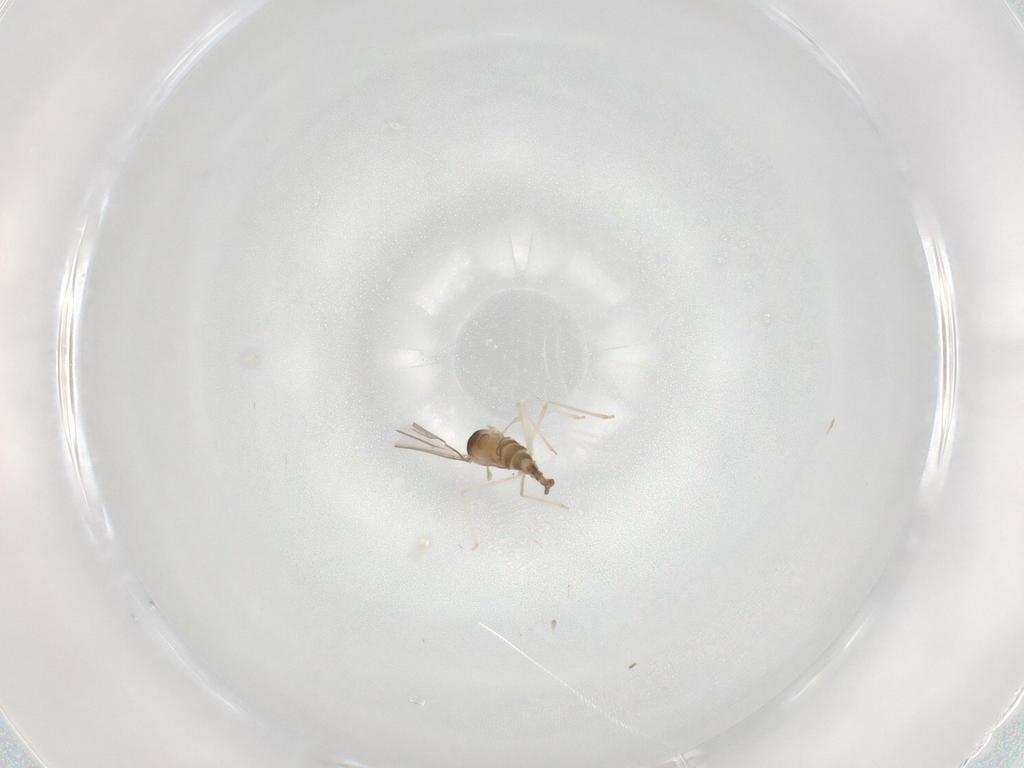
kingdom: Animalia
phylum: Arthropoda
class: Insecta
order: Diptera
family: Cecidomyiidae
